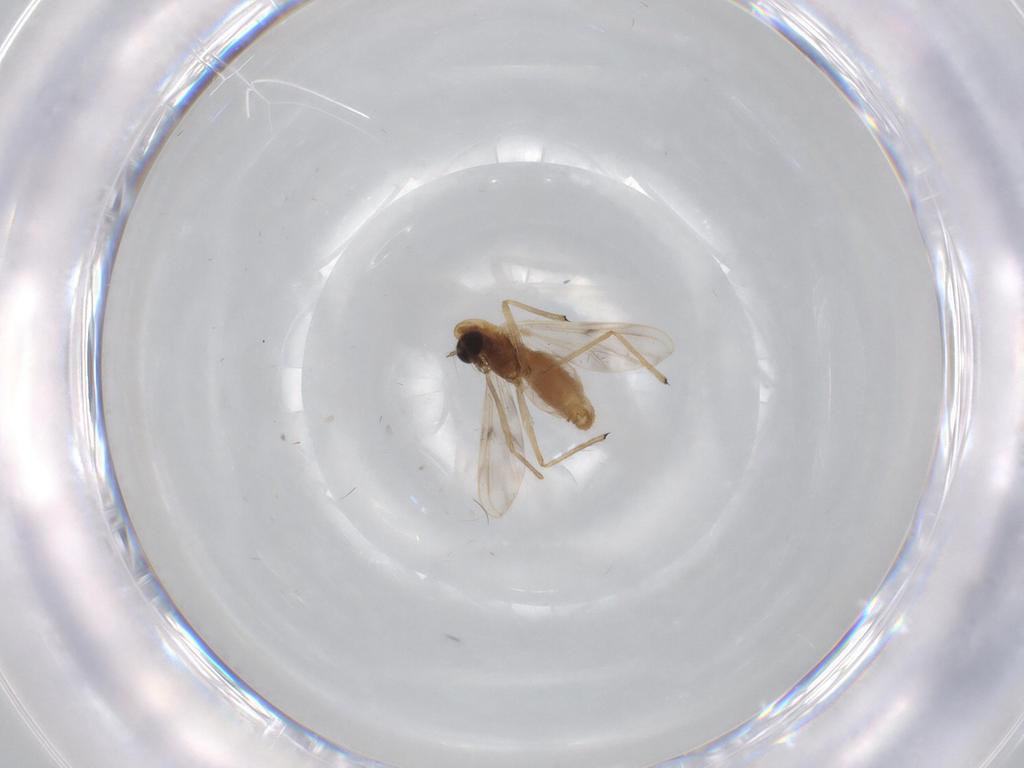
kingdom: Animalia
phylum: Arthropoda
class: Insecta
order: Diptera
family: Chironomidae
